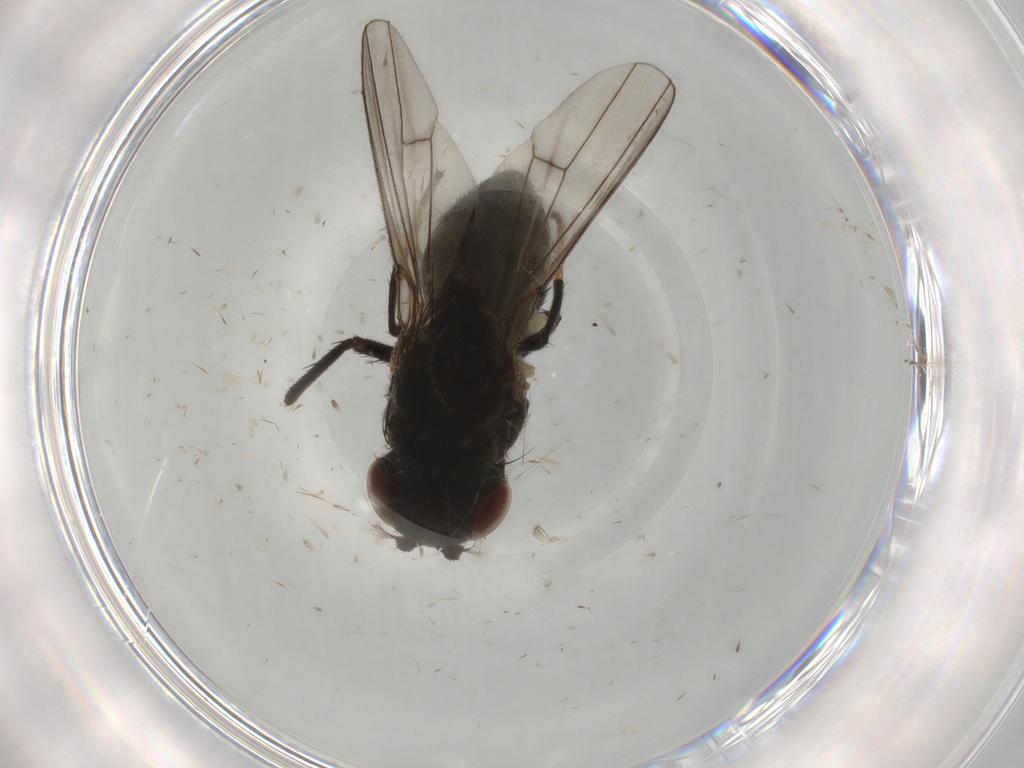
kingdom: Animalia
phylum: Arthropoda
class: Insecta
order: Diptera
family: Ephydridae
